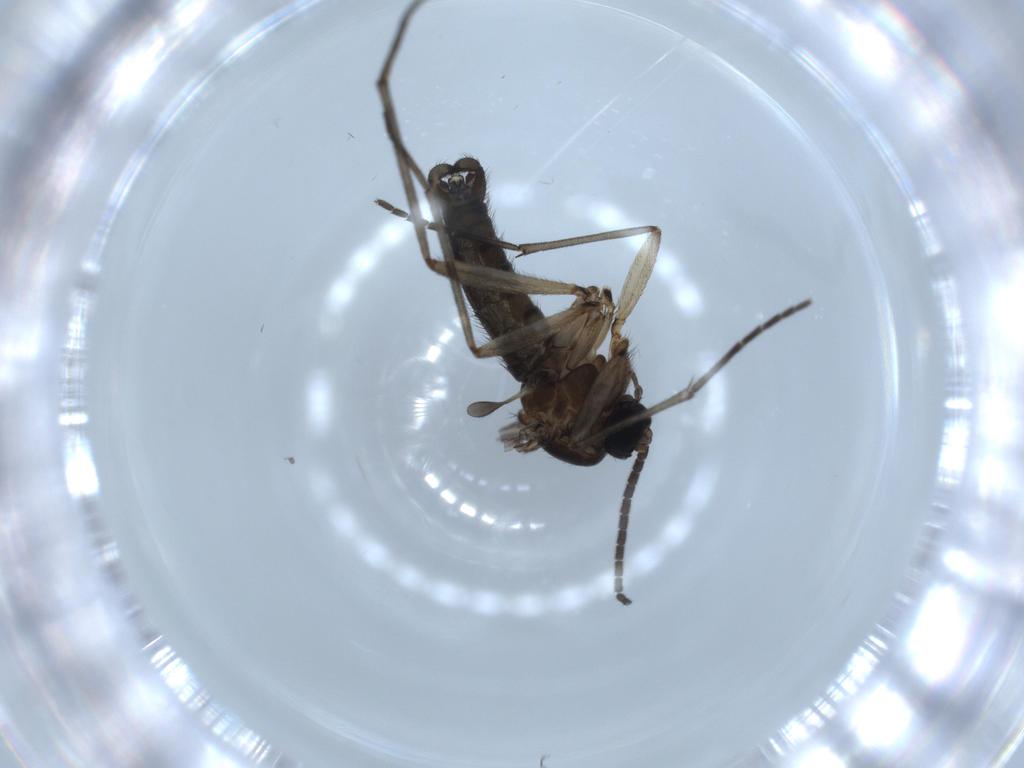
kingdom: Animalia
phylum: Arthropoda
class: Insecta
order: Diptera
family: Sciaridae
